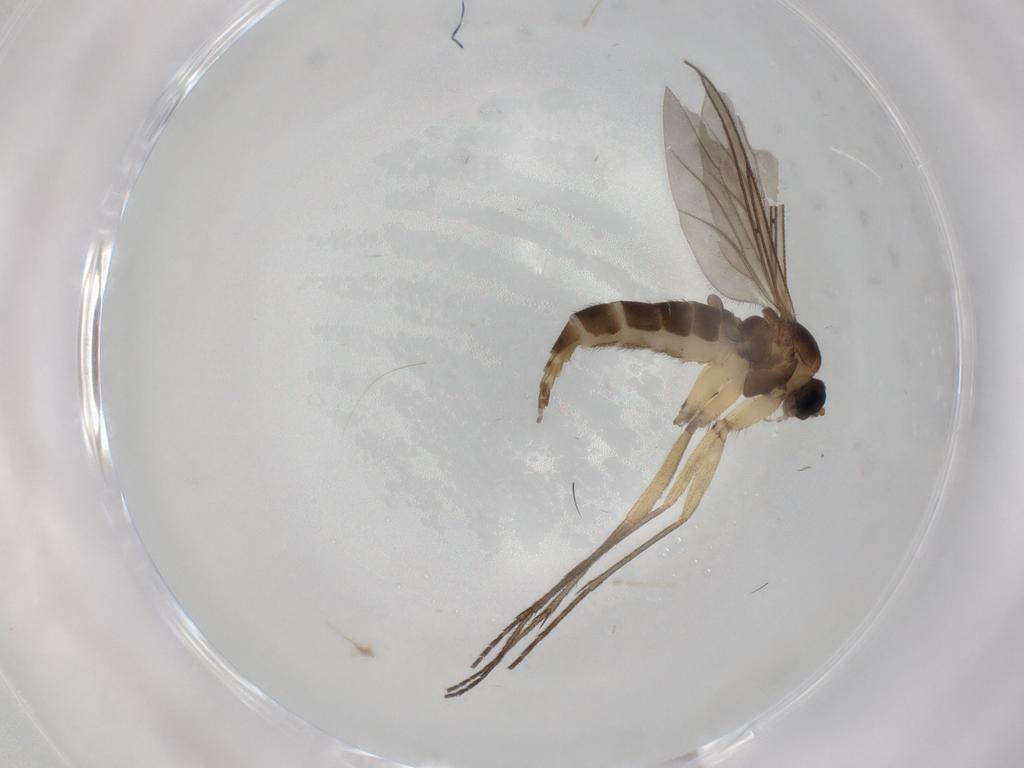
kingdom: Animalia
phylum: Arthropoda
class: Insecta
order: Diptera
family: Sciaridae
